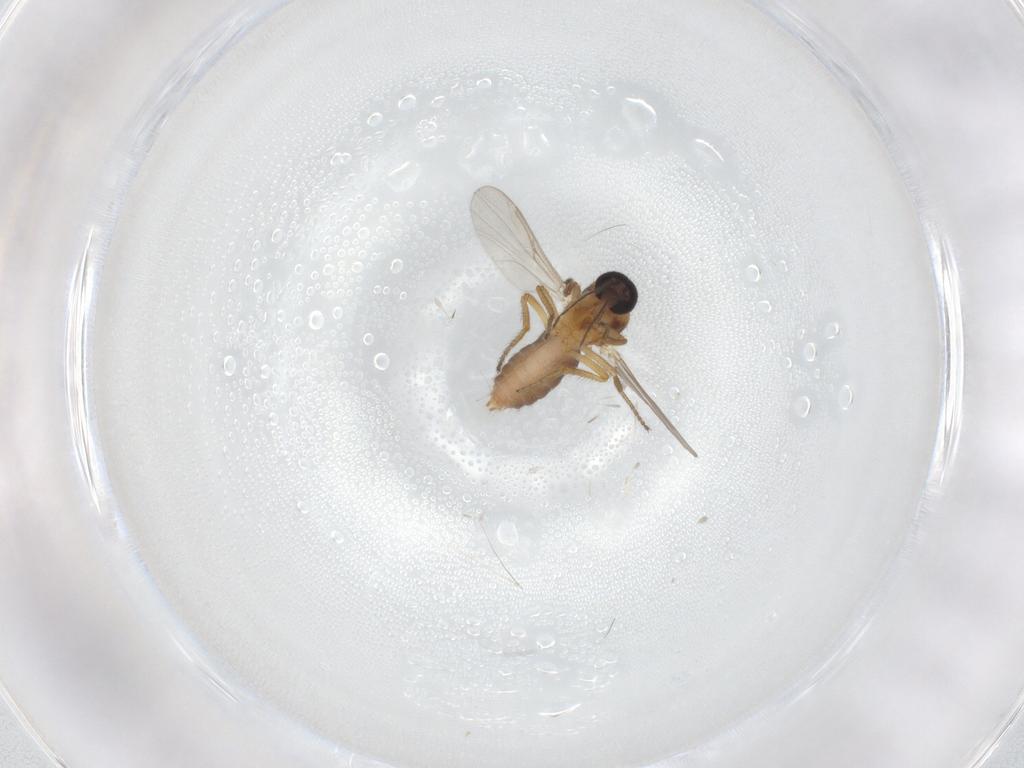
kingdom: Animalia
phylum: Arthropoda
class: Insecta
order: Diptera
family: Ceratopogonidae
